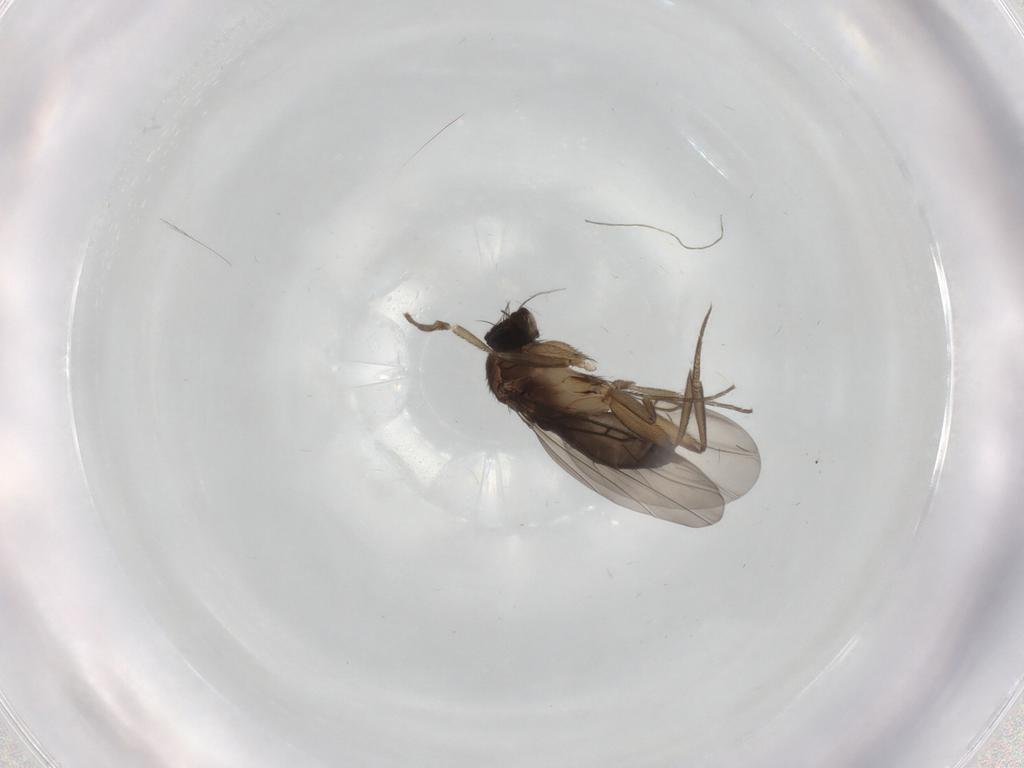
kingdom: Animalia
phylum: Arthropoda
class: Insecta
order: Diptera
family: Phoridae
